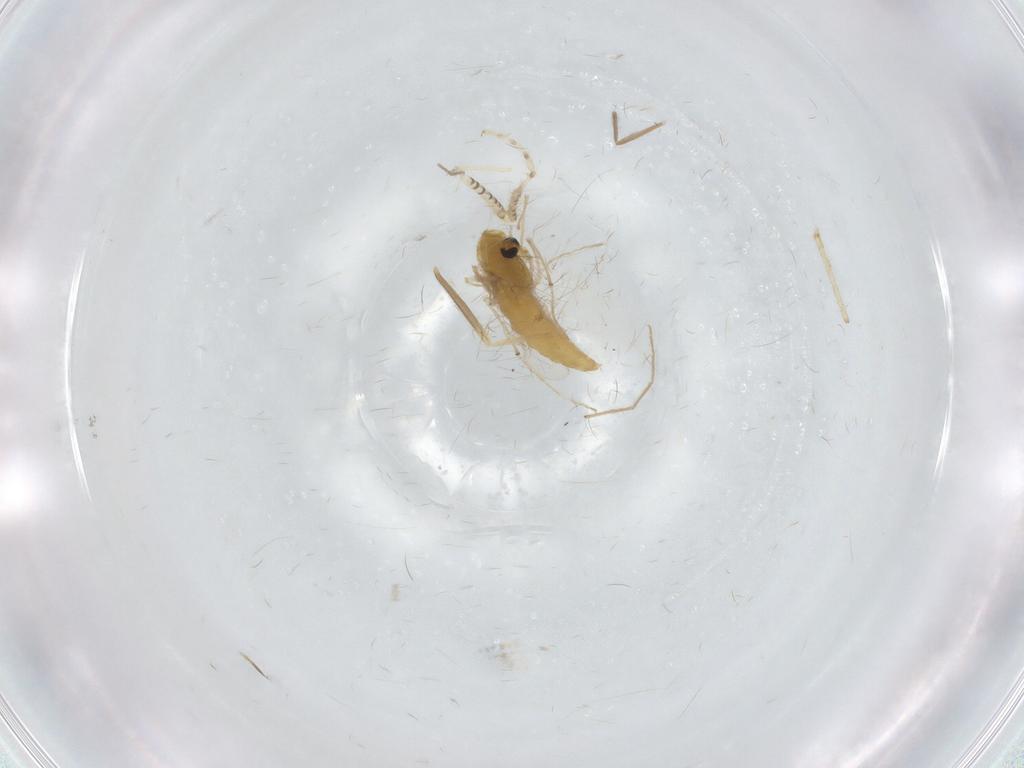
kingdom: Animalia
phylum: Arthropoda
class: Insecta
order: Diptera
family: Chaoboridae
